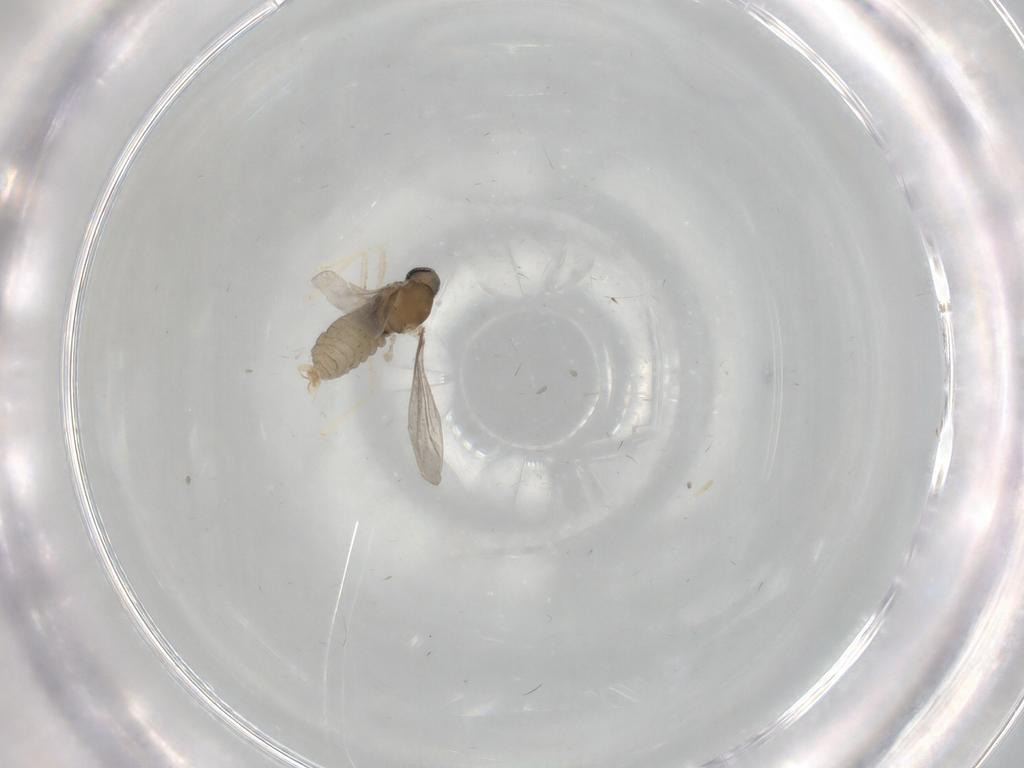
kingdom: Animalia
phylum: Arthropoda
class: Insecta
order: Diptera
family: Cecidomyiidae
